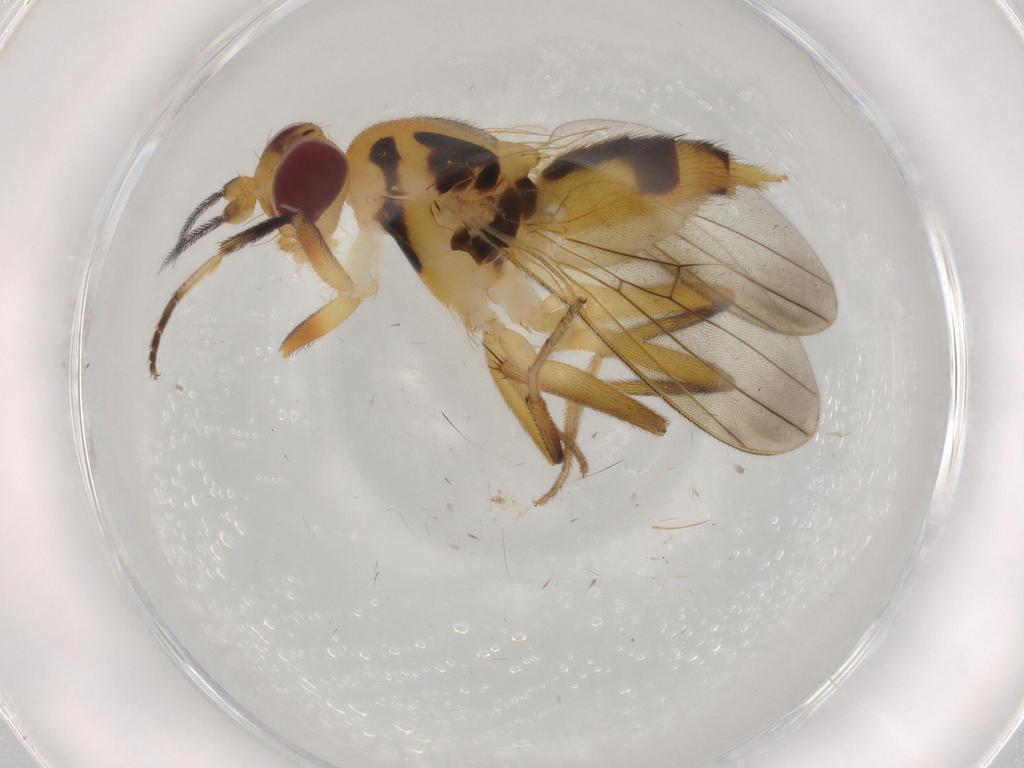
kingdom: Animalia
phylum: Arthropoda
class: Insecta
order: Diptera
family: Clusiidae
